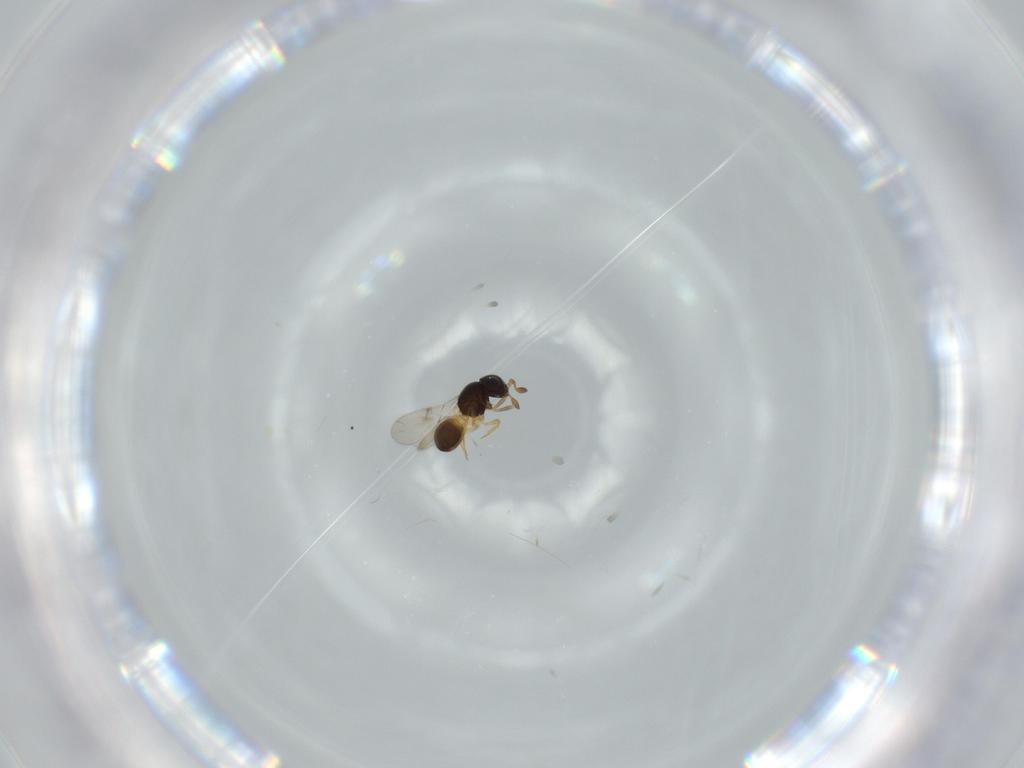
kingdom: Animalia
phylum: Arthropoda
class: Insecta
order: Hymenoptera
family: Scelionidae
